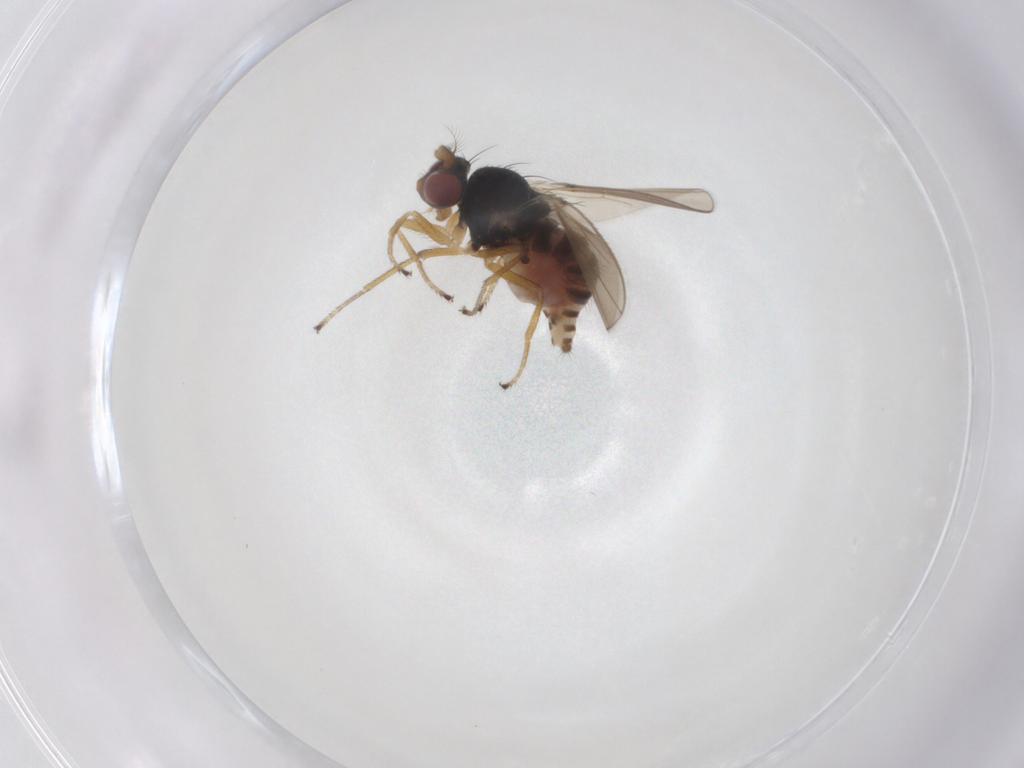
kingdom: Animalia
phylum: Arthropoda
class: Insecta
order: Diptera
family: Ephydridae
